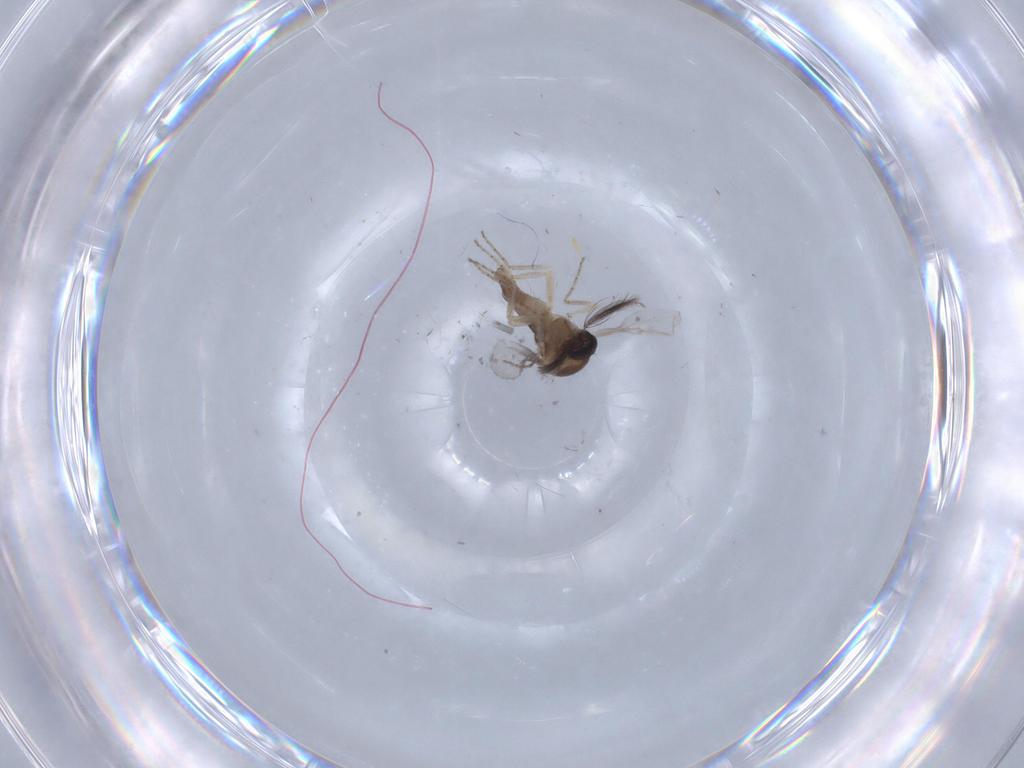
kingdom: Animalia
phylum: Arthropoda
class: Insecta
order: Diptera
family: Ceratopogonidae
